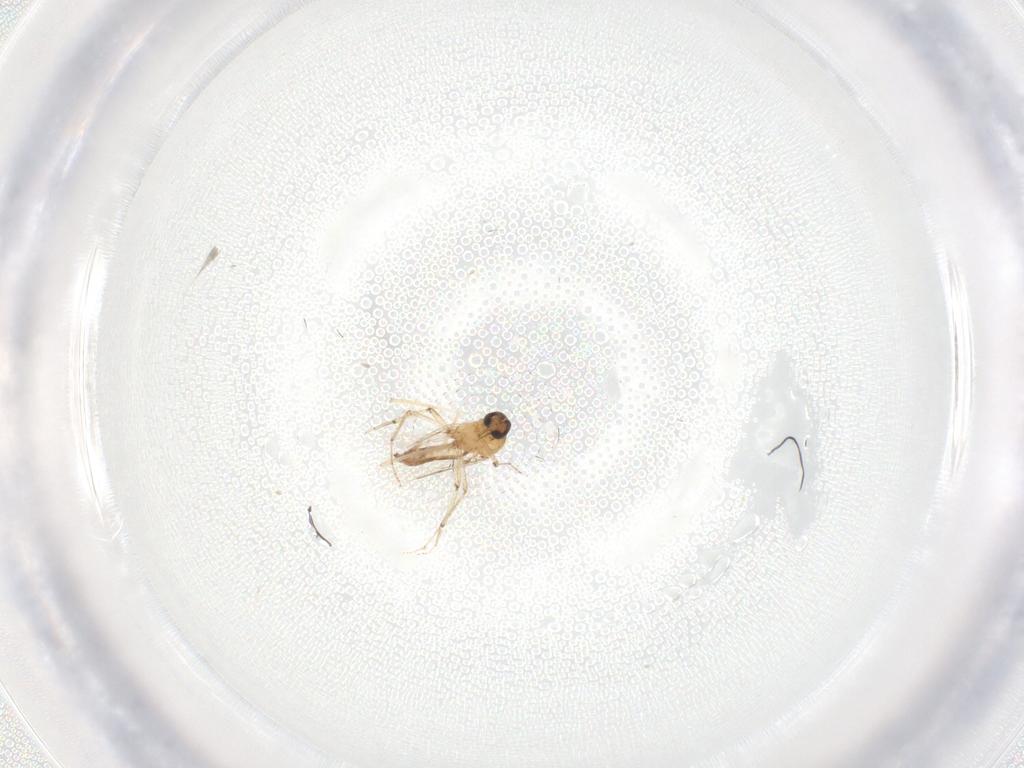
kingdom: Animalia
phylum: Arthropoda
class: Insecta
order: Diptera
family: Ceratopogonidae
